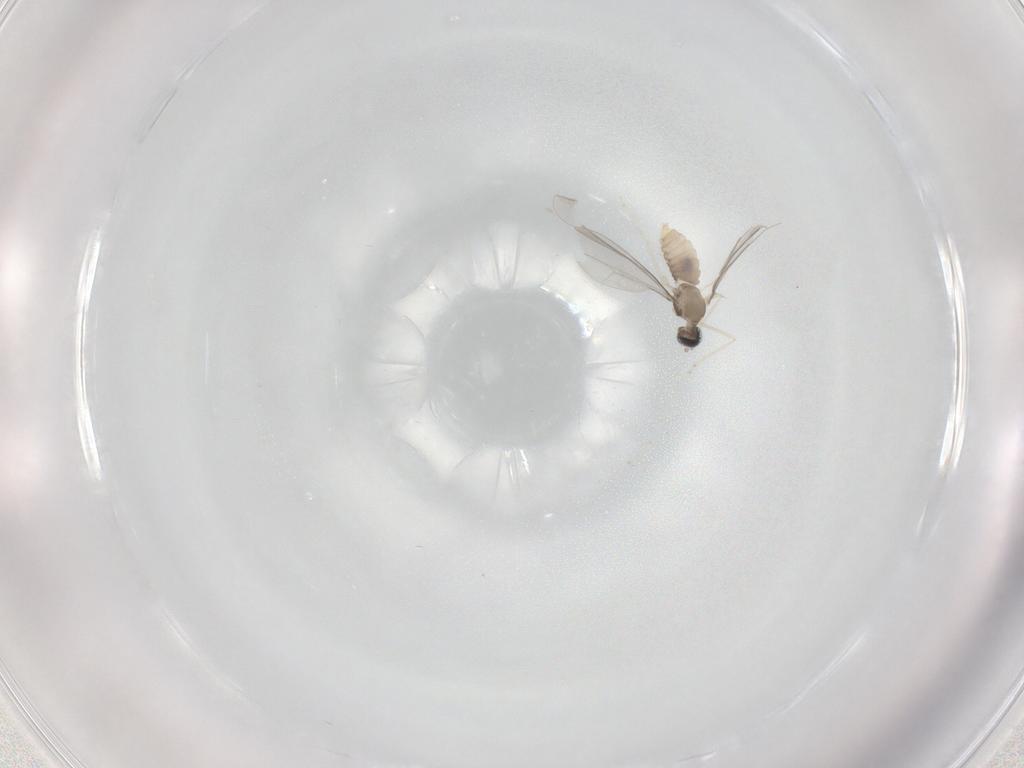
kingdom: Animalia
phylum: Arthropoda
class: Insecta
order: Diptera
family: Cecidomyiidae
